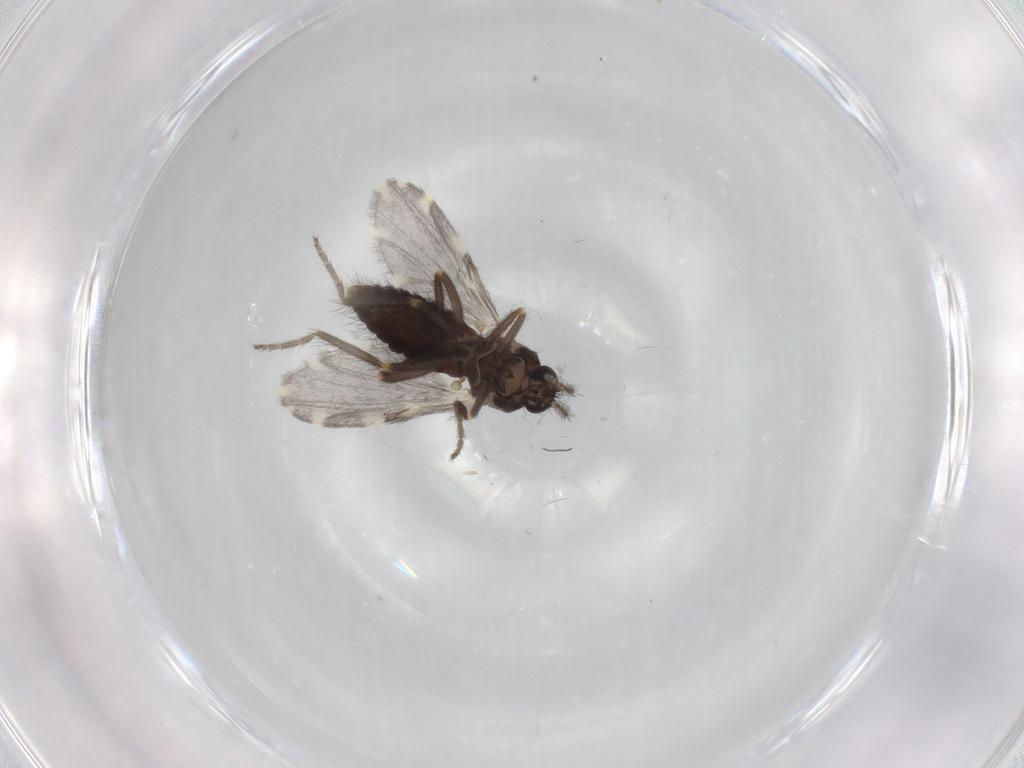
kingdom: Animalia
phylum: Arthropoda
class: Insecta
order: Diptera
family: Ceratopogonidae
